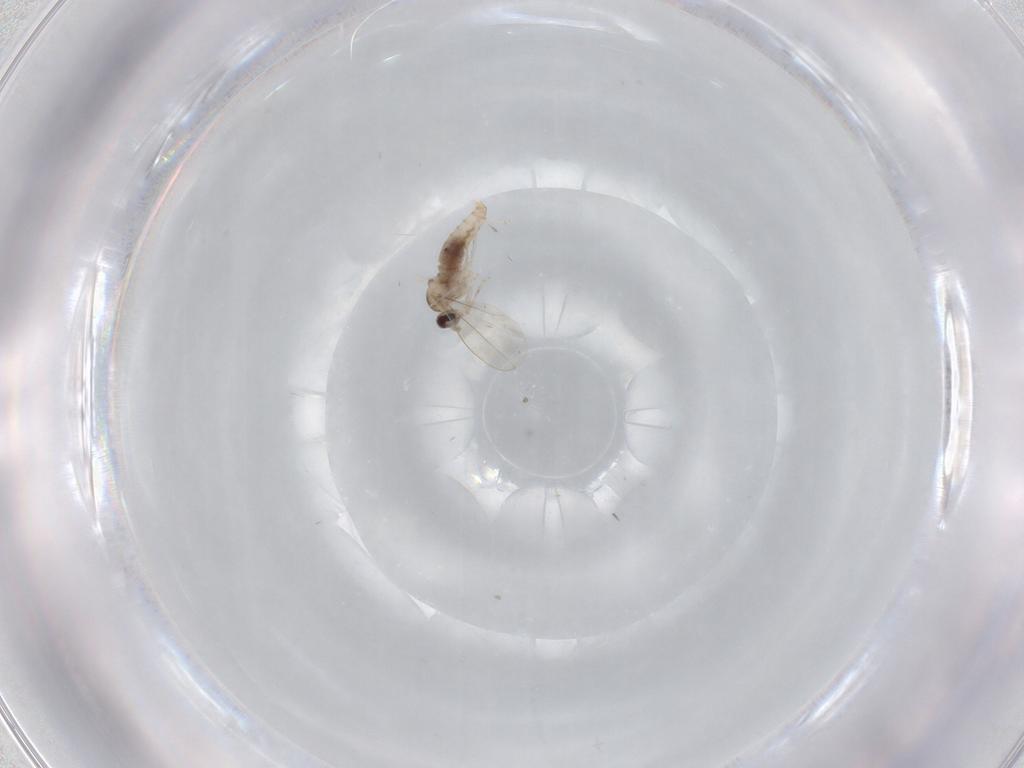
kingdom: Animalia
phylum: Arthropoda
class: Insecta
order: Diptera
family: Cecidomyiidae
